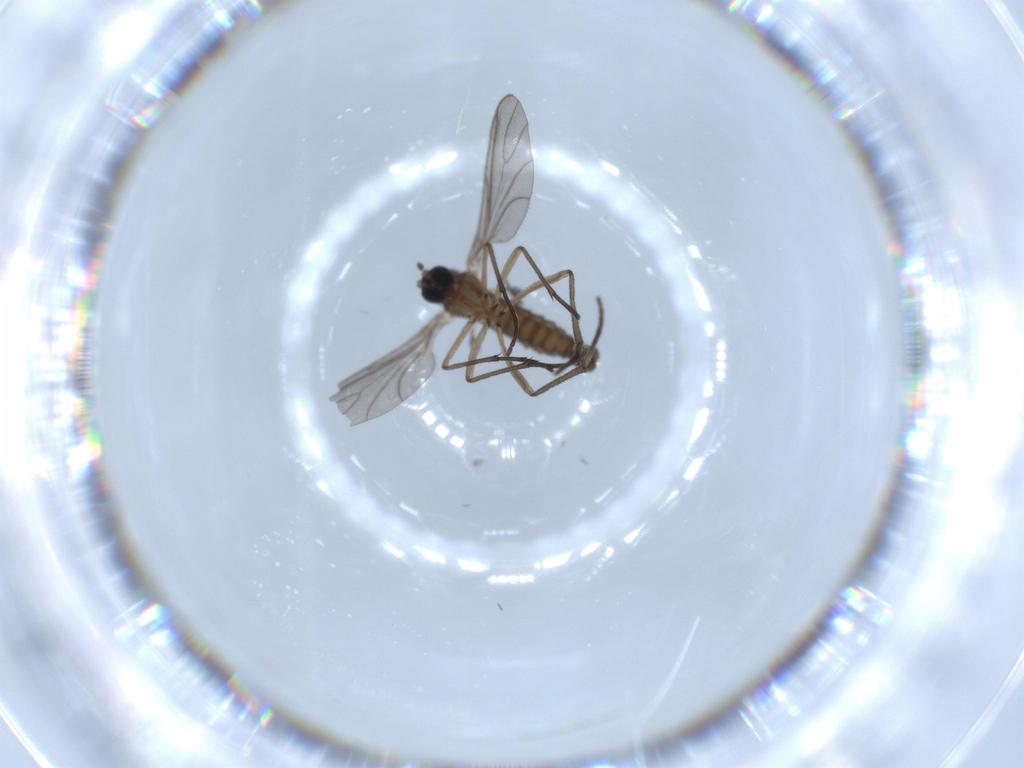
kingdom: Animalia
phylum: Arthropoda
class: Insecta
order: Diptera
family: Sciaridae
